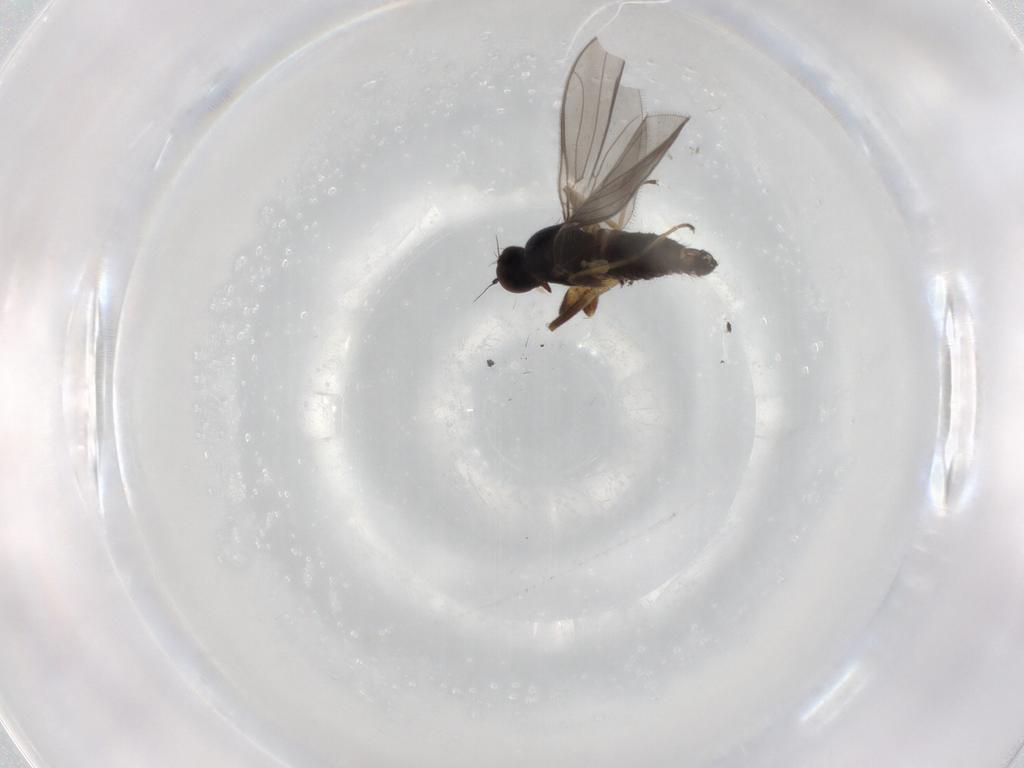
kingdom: Animalia
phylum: Arthropoda
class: Insecta
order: Diptera
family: Hybotidae
